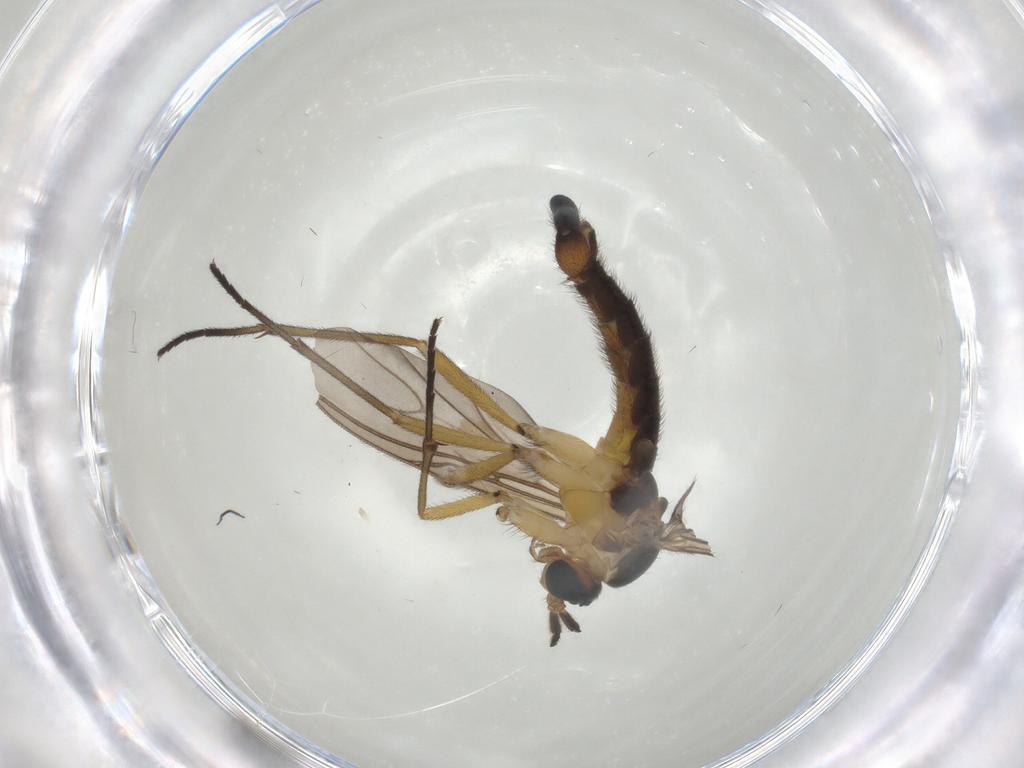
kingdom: Animalia
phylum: Arthropoda
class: Insecta
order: Diptera
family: Sciaridae
